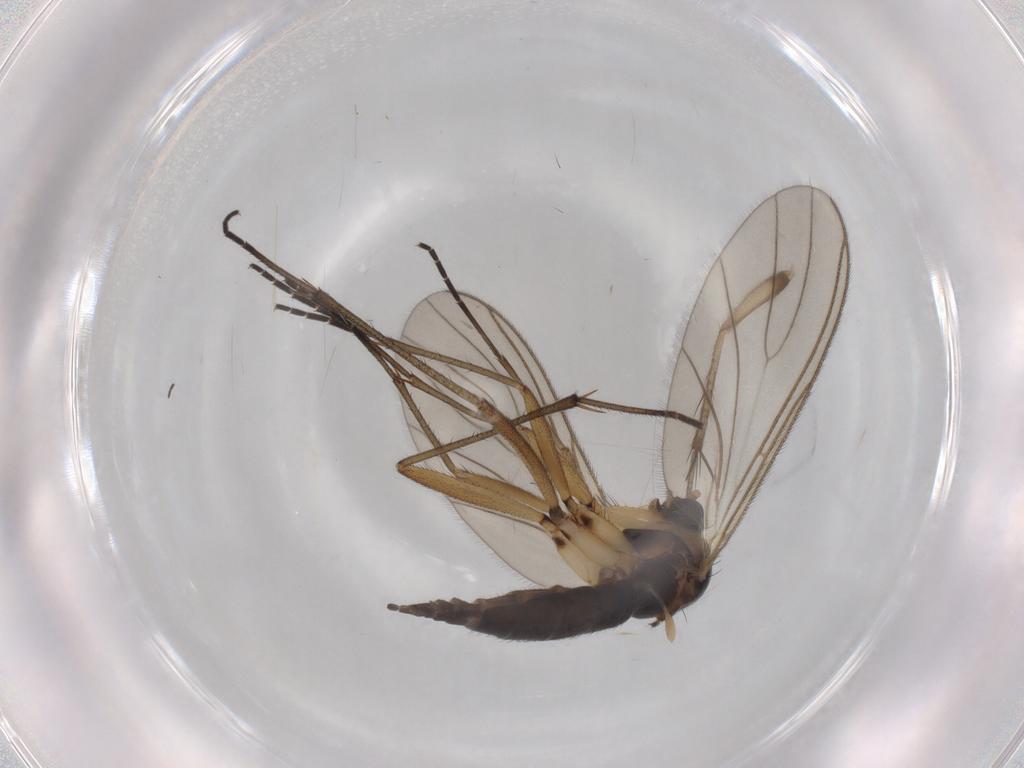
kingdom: Animalia
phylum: Arthropoda
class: Insecta
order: Diptera
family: Sciaridae
